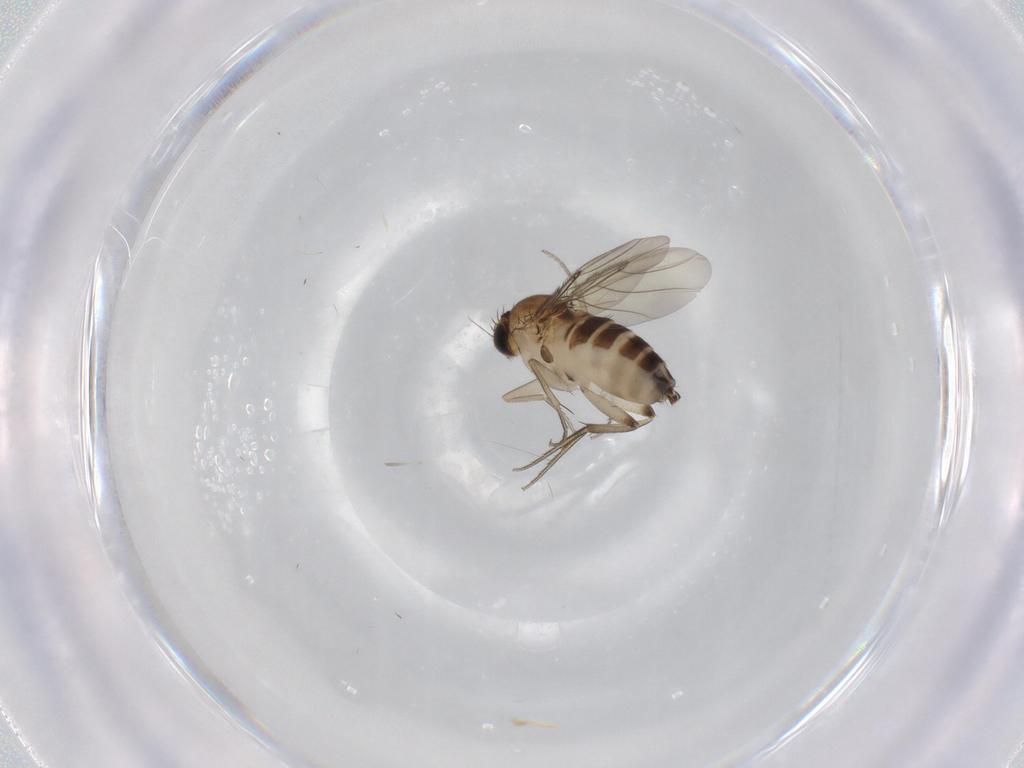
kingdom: Animalia
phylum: Arthropoda
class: Insecta
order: Diptera
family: Phoridae
